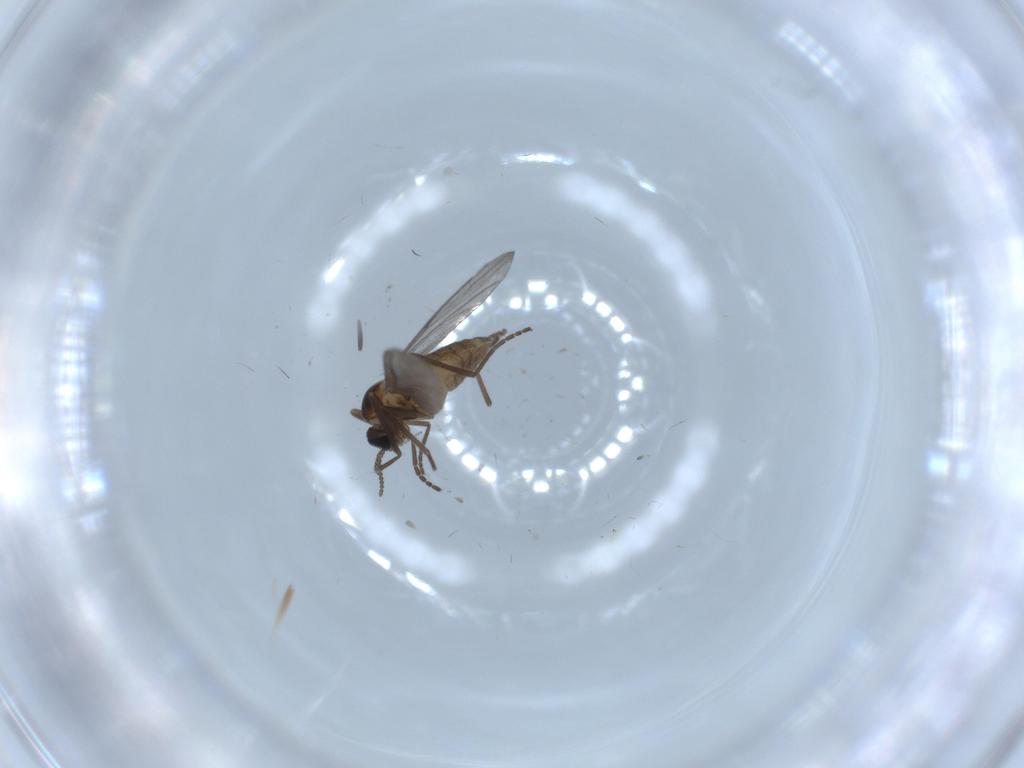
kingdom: Animalia
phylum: Arthropoda
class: Insecta
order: Diptera
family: Cecidomyiidae
